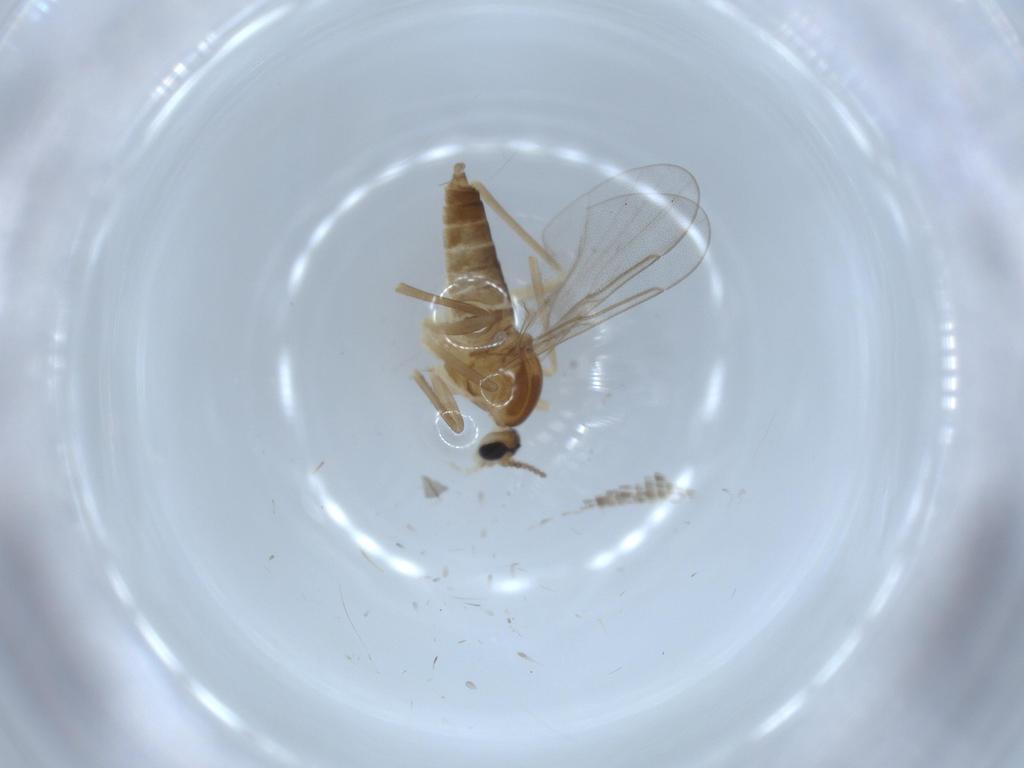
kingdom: Animalia
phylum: Arthropoda
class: Insecta
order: Diptera
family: Cecidomyiidae
